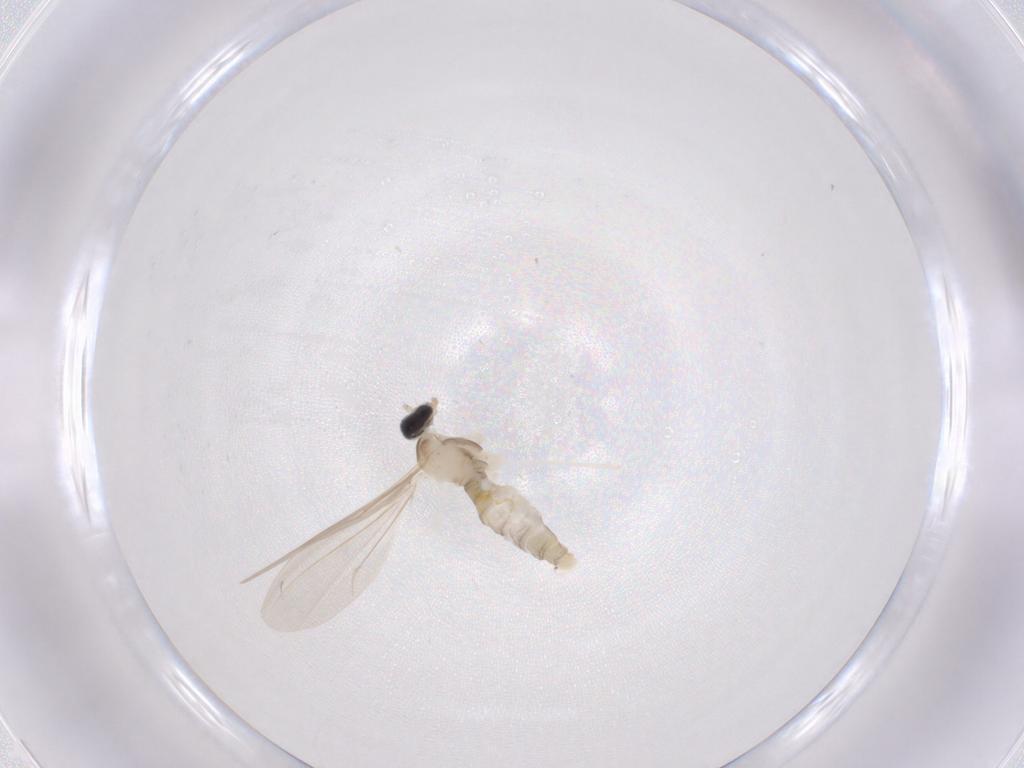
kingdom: Animalia
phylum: Arthropoda
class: Insecta
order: Diptera
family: Cecidomyiidae
